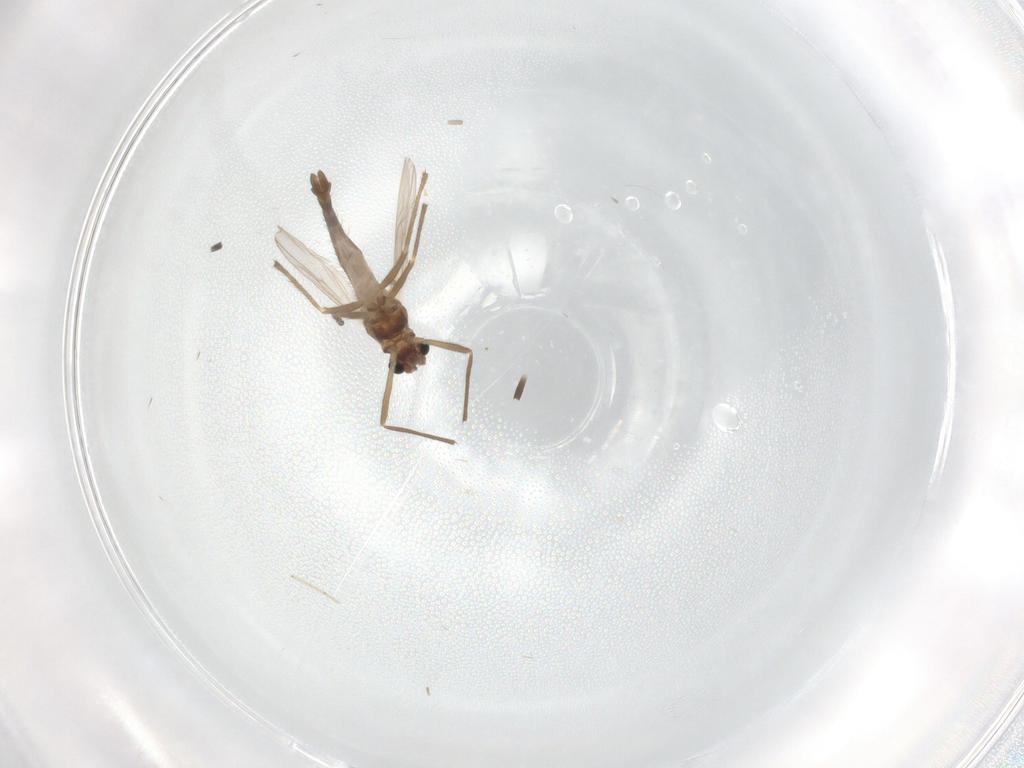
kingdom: Animalia
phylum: Arthropoda
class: Insecta
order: Diptera
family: Chironomidae
